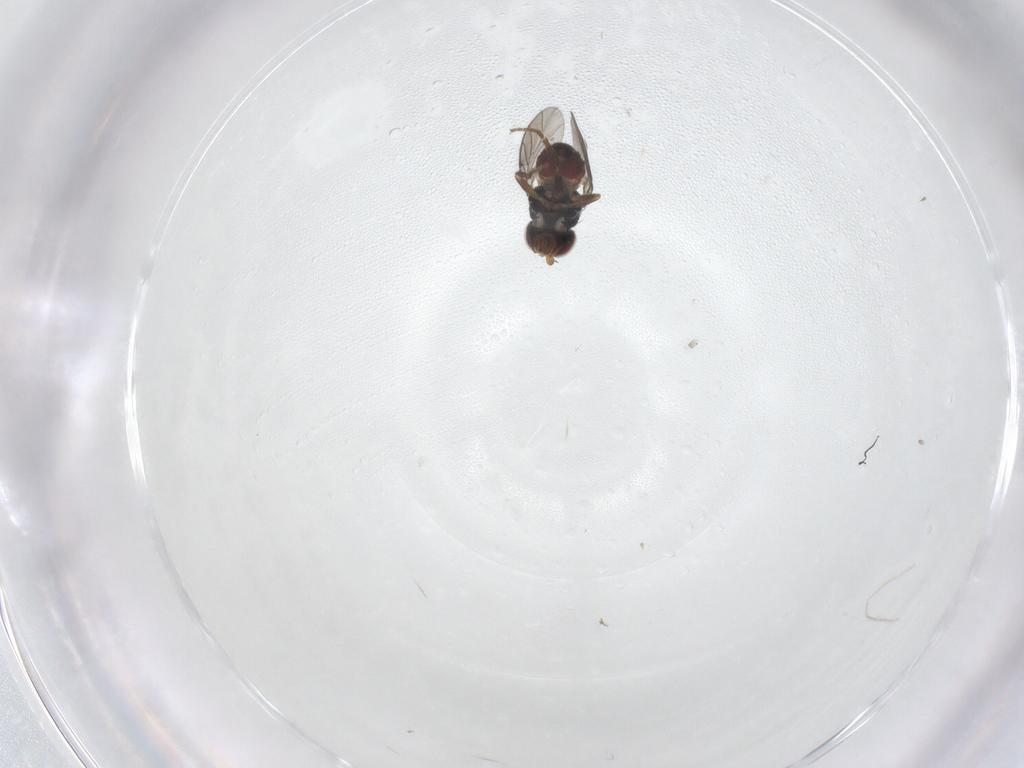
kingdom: Animalia
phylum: Arthropoda
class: Insecta
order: Diptera
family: Chloropidae
